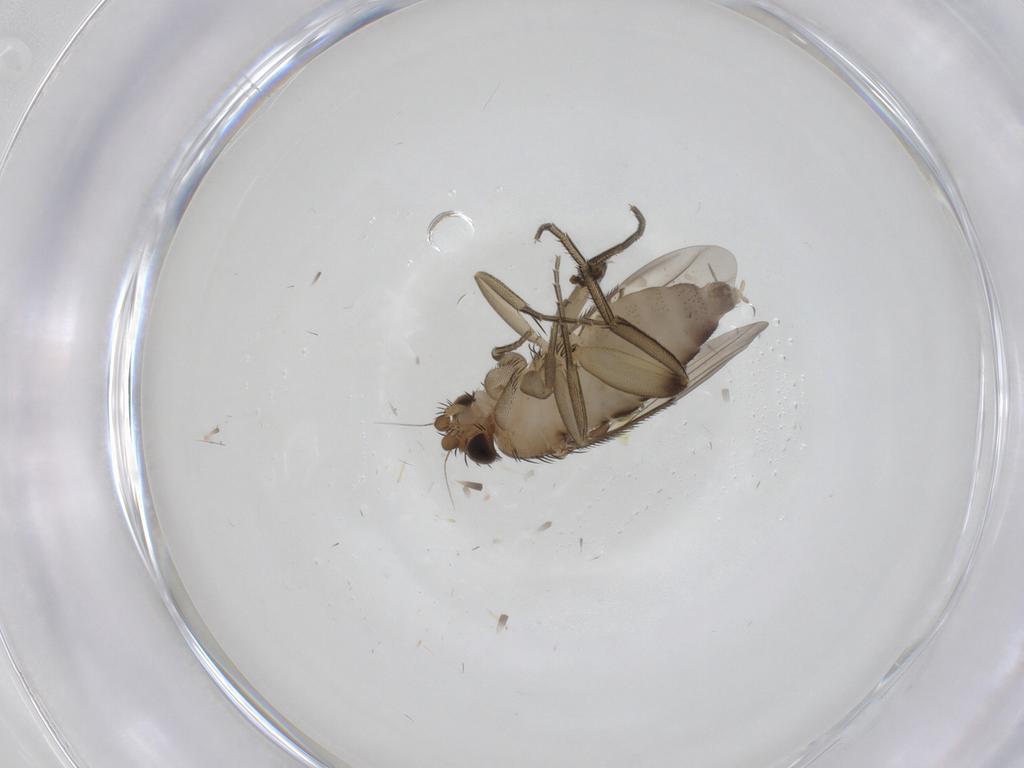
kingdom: Animalia
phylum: Arthropoda
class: Insecta
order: Diptera
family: Phoridae
